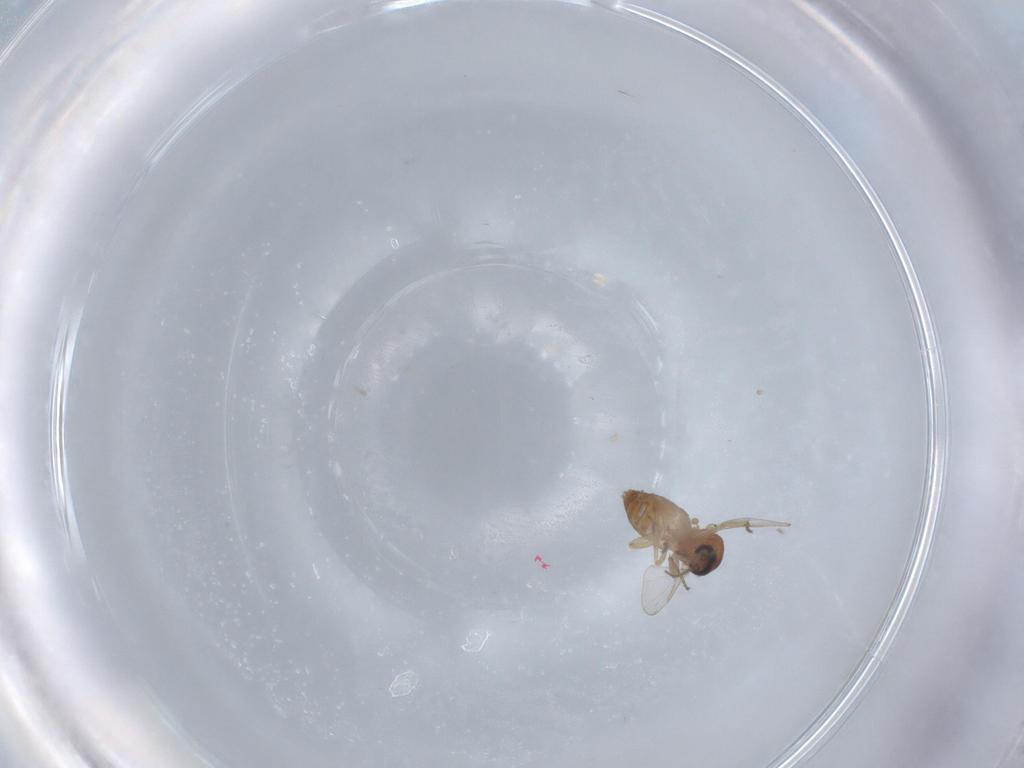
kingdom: Animalia
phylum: Arthropoda
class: Insecta
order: Diptera
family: Ceratopogonidae
